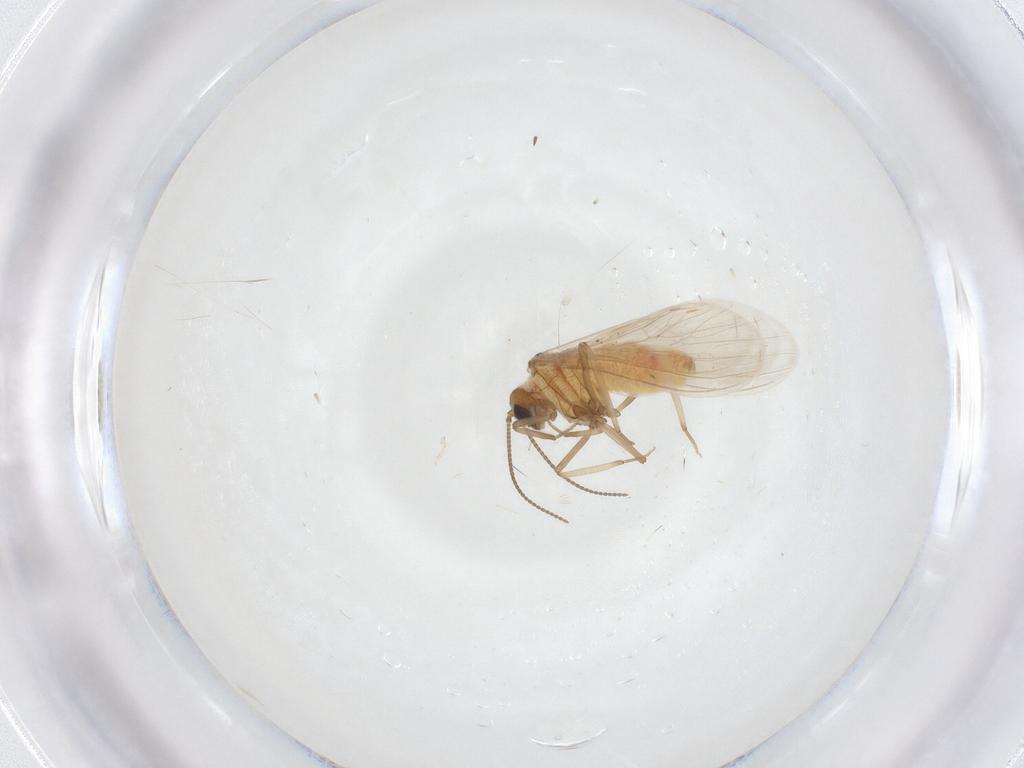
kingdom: Animalia
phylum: Arthropoda
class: Insecta
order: Neuroptera
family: Coniopterygidae
